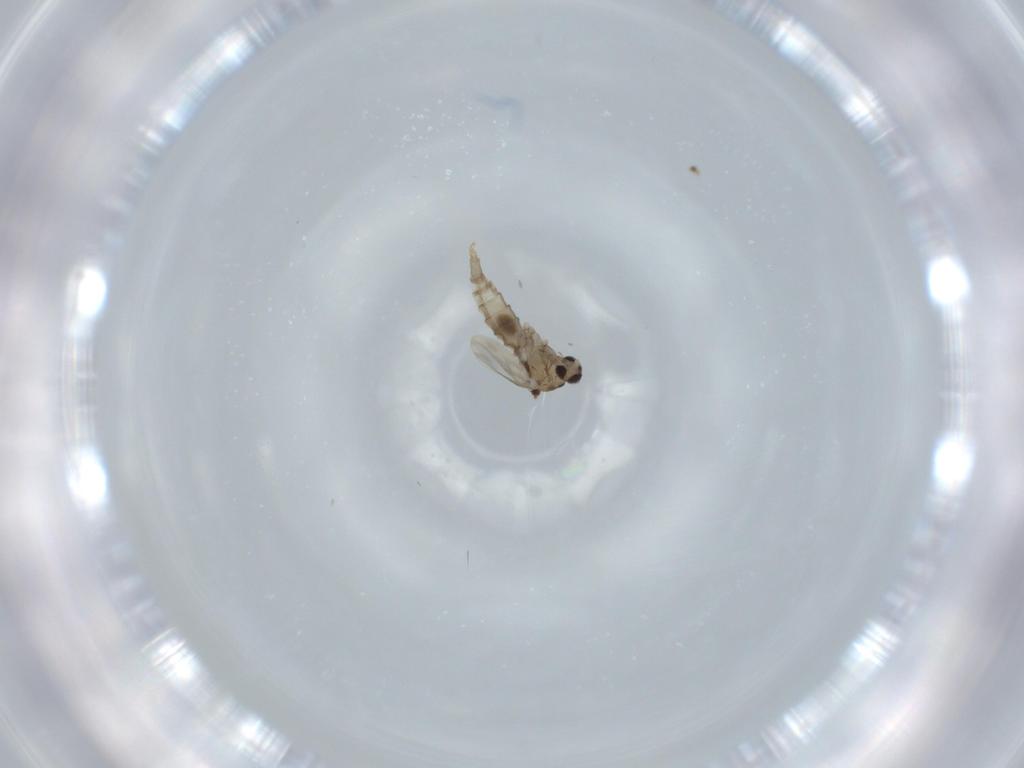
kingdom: Animalia
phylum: Arthropoda
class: Insecta
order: Diptera
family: Cecidomyiidae
